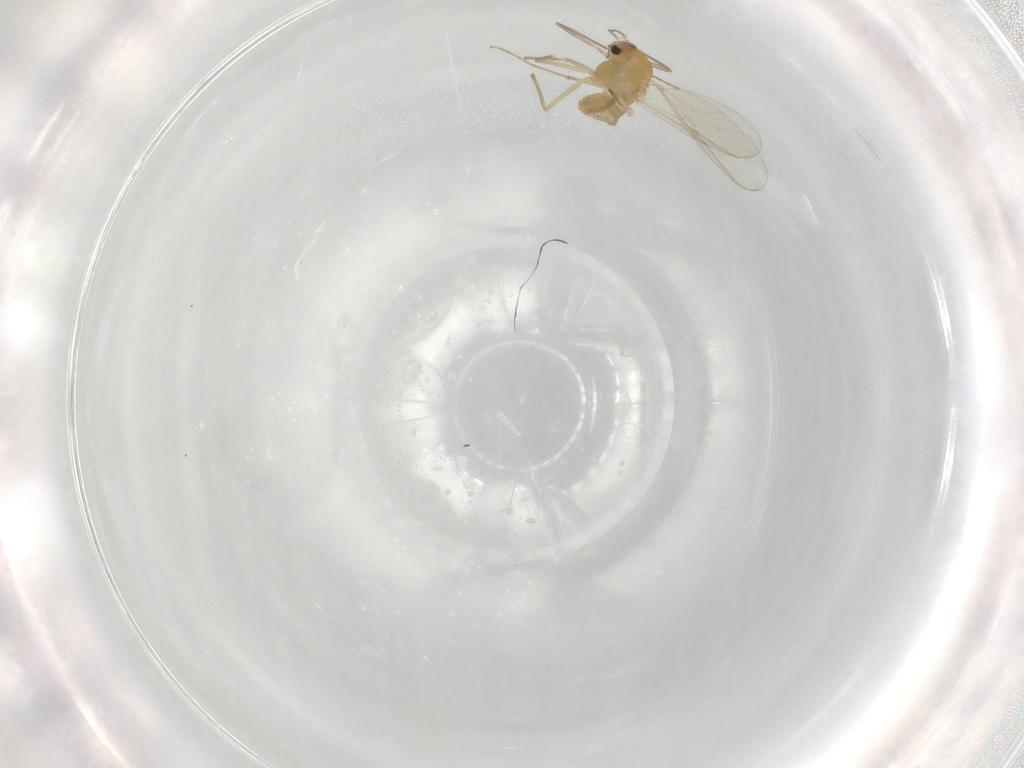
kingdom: Animalia
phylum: Arthropoda
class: Insecta
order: Diptera
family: Chironomidae
